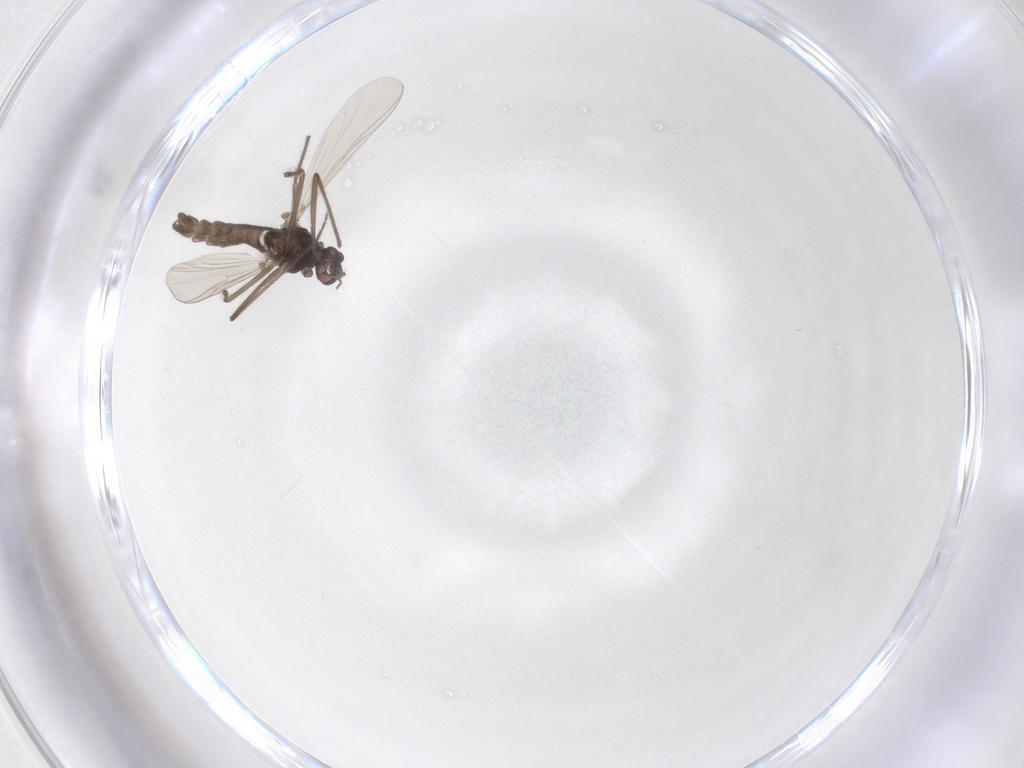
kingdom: Animalia
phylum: Arthropoda
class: Insecta
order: Diptera
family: Chironomidae
